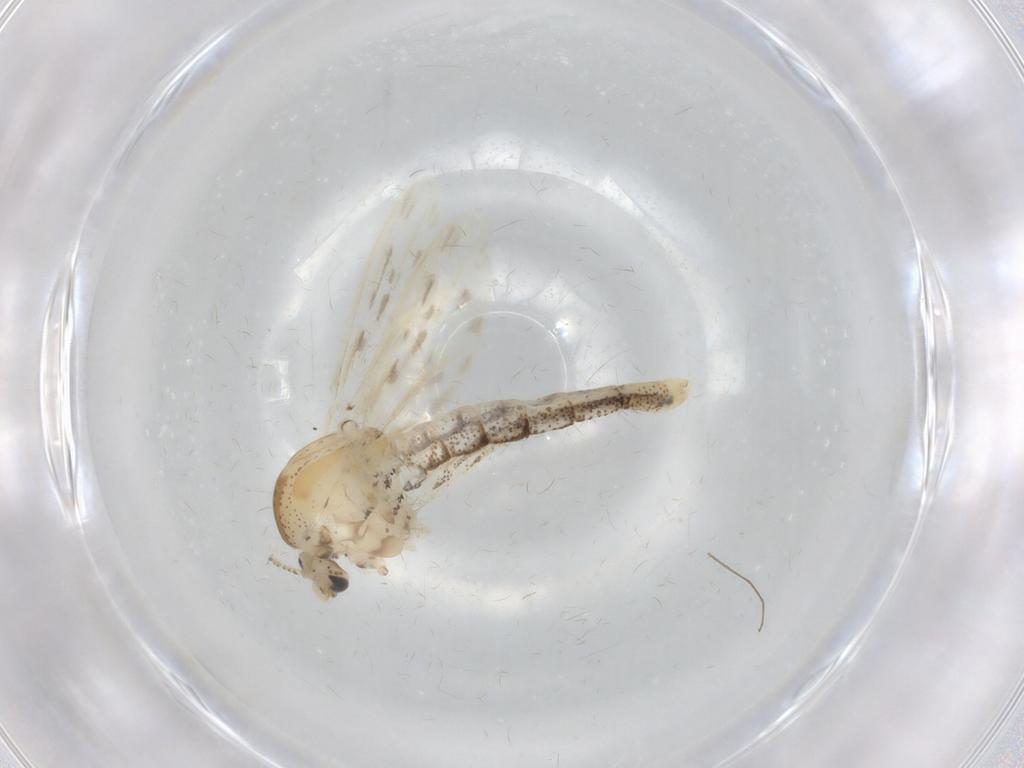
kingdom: Animalia
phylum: Arthropoda
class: Insecta
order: Diptera
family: Chaoboridae
